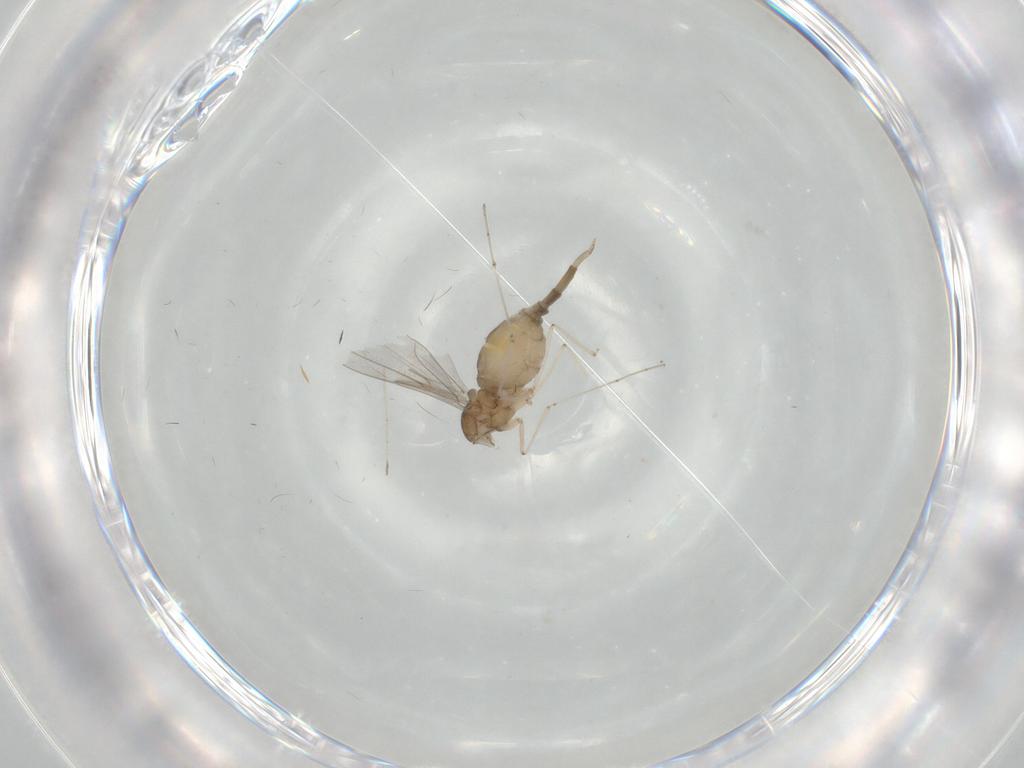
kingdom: Animalia
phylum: Arthropoda
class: Insecta
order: Diptera
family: Cecidomyiidae
